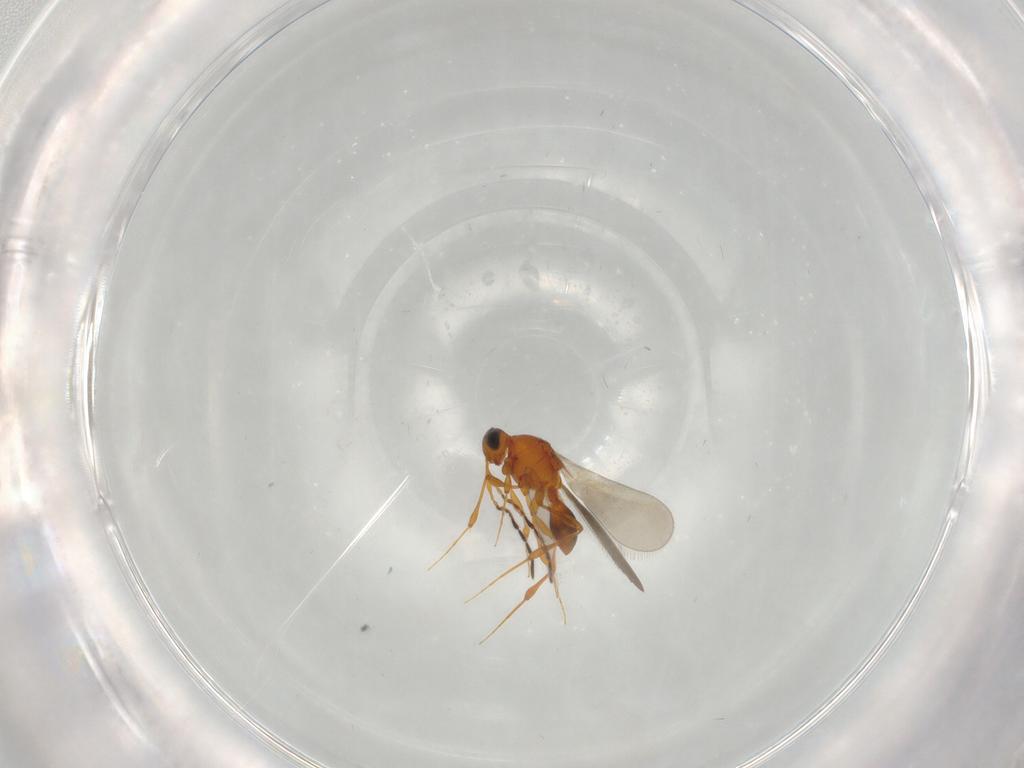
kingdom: Animalia
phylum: Arthropoda
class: Insecta
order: Hymenoptera
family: Platygastridae
